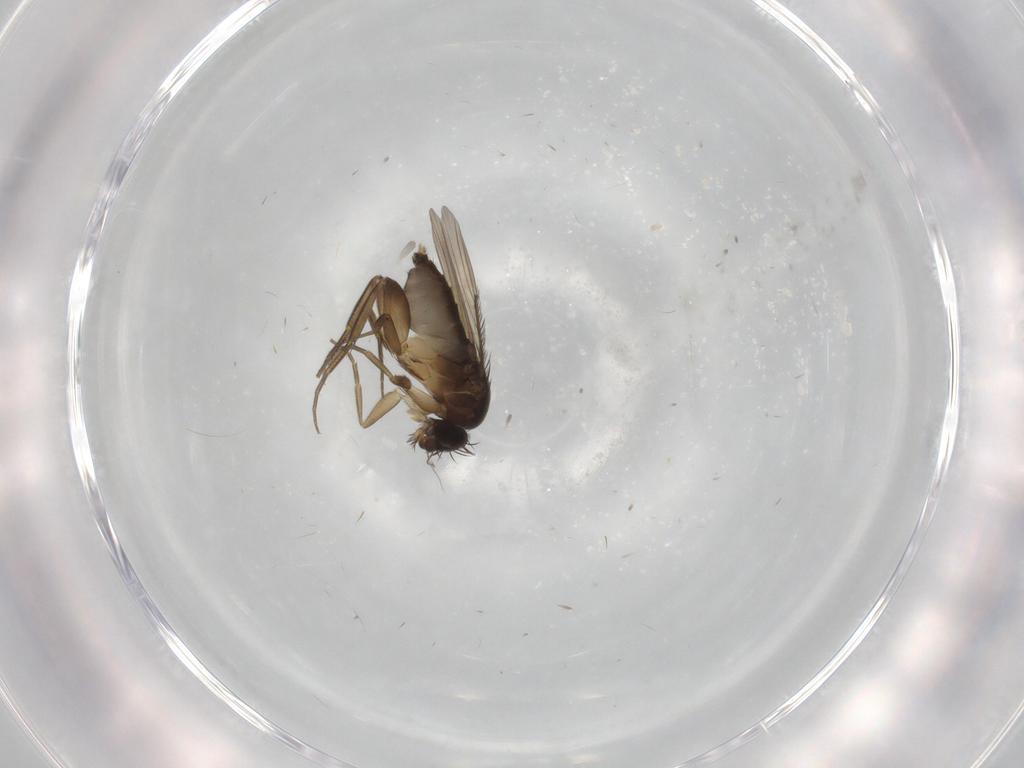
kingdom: Animalia
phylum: Arthropoda
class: Insecta
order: Diptera
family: Phoridae
